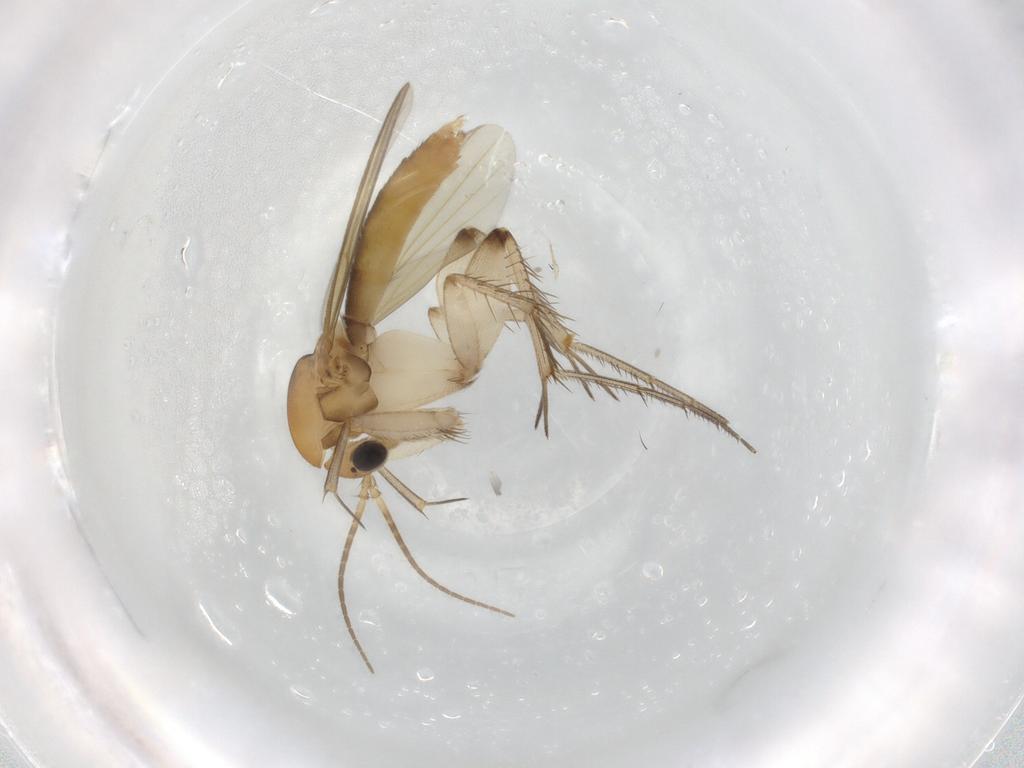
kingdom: Animalia
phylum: Arthropoda
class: Insecta
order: Diptera
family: Mycetophilidae
